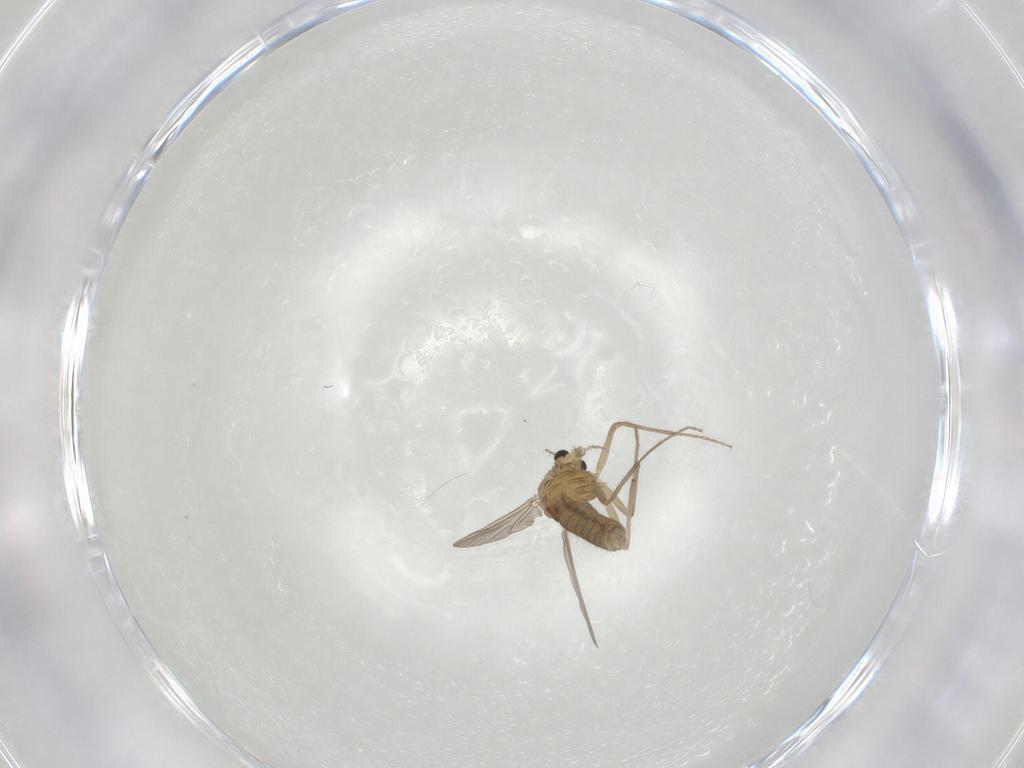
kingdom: Animalia
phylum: Arthropoda
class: Insecta
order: Diptera
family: Chironomidae
